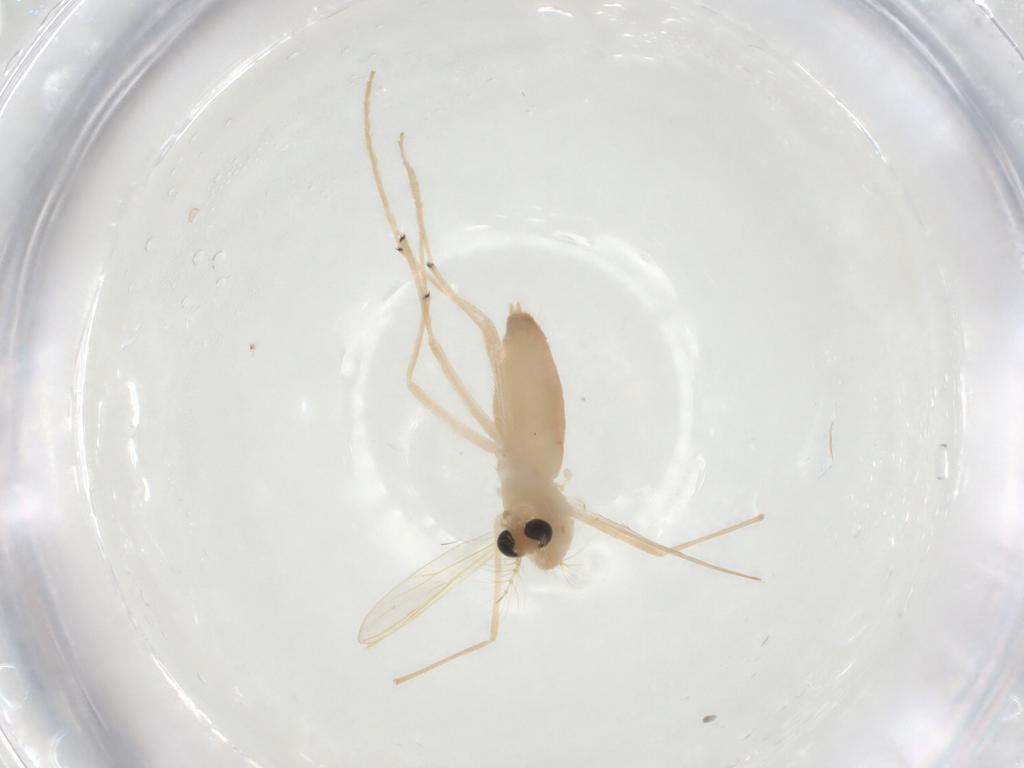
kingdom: Animalia
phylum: Arthropoda
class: Insecta
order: Diptera
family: Chironomidae
